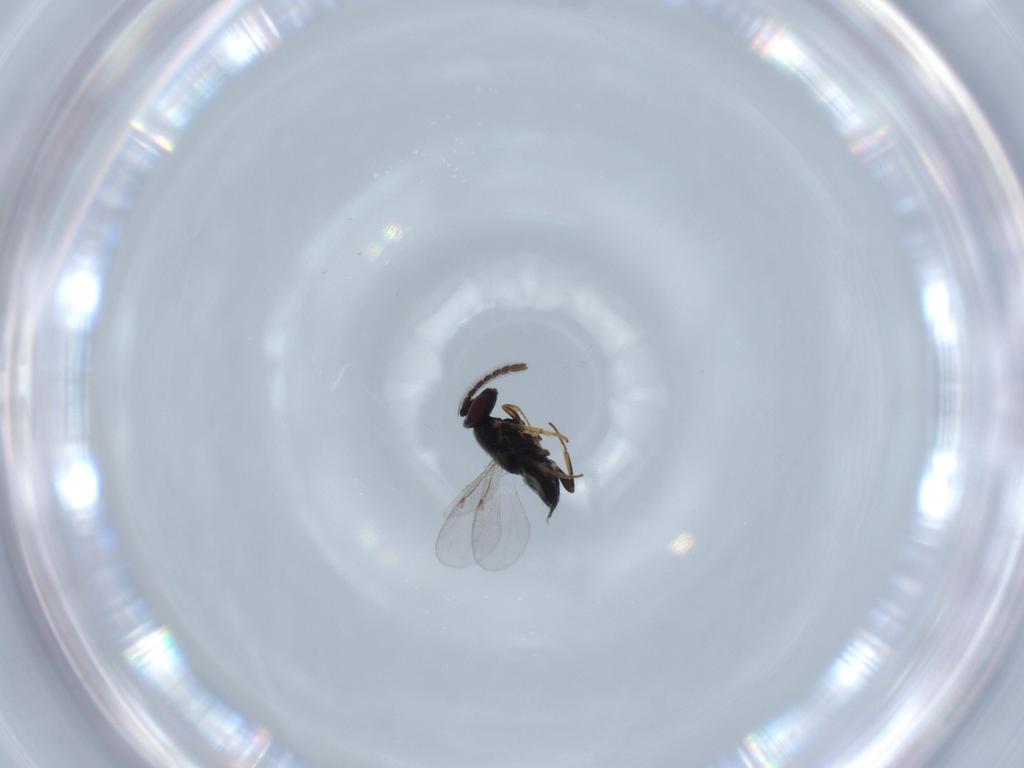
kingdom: Animalia
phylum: Arthropoda
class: Insecta
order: Hymenoptera
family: Encyrtidae
